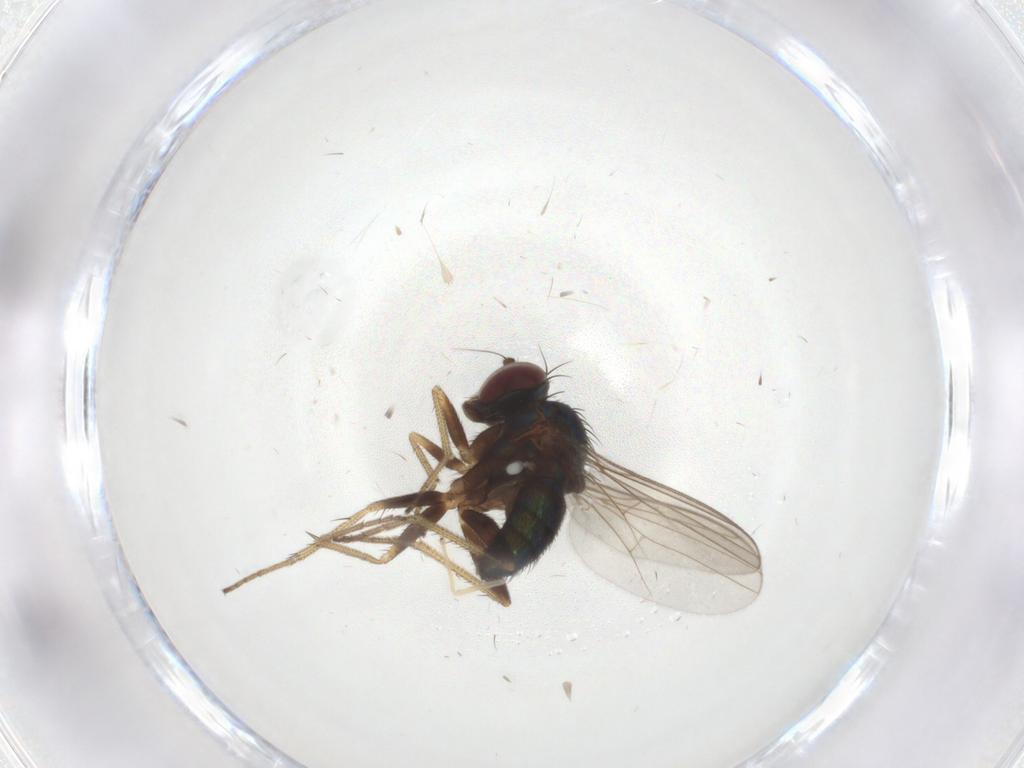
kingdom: Animalia
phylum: Arthropoda
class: Insecta
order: Diptera
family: Chironomidae
